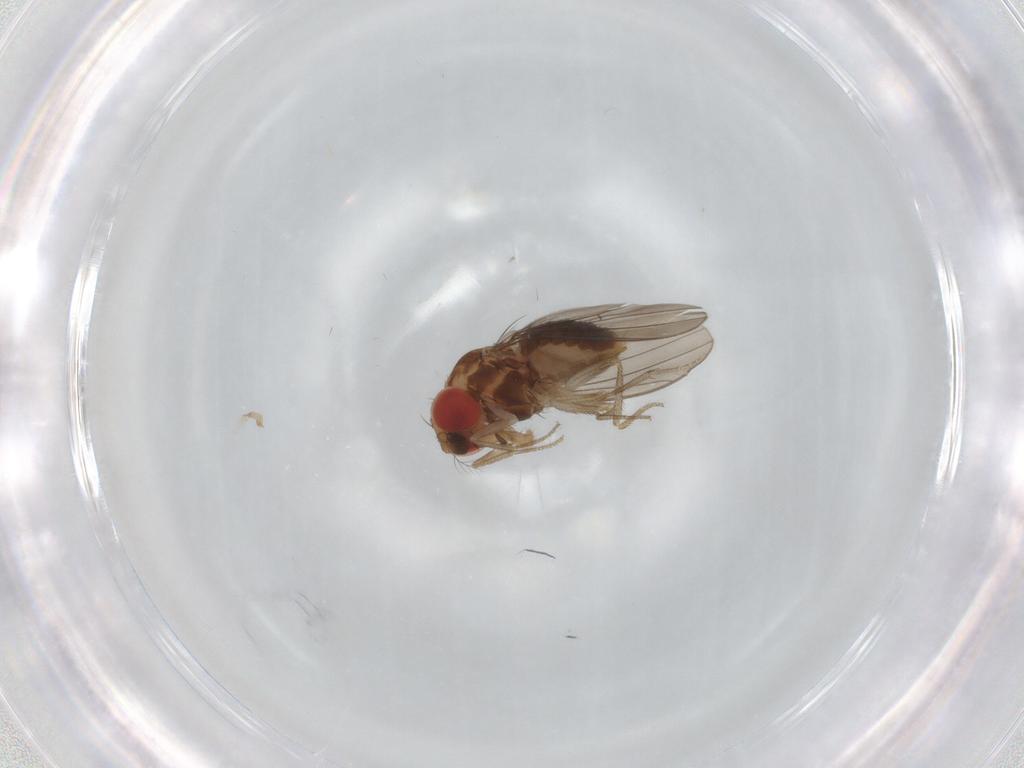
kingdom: Animalia
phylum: Arthropoda
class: Insecta
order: Diptera
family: Drosophilidae
